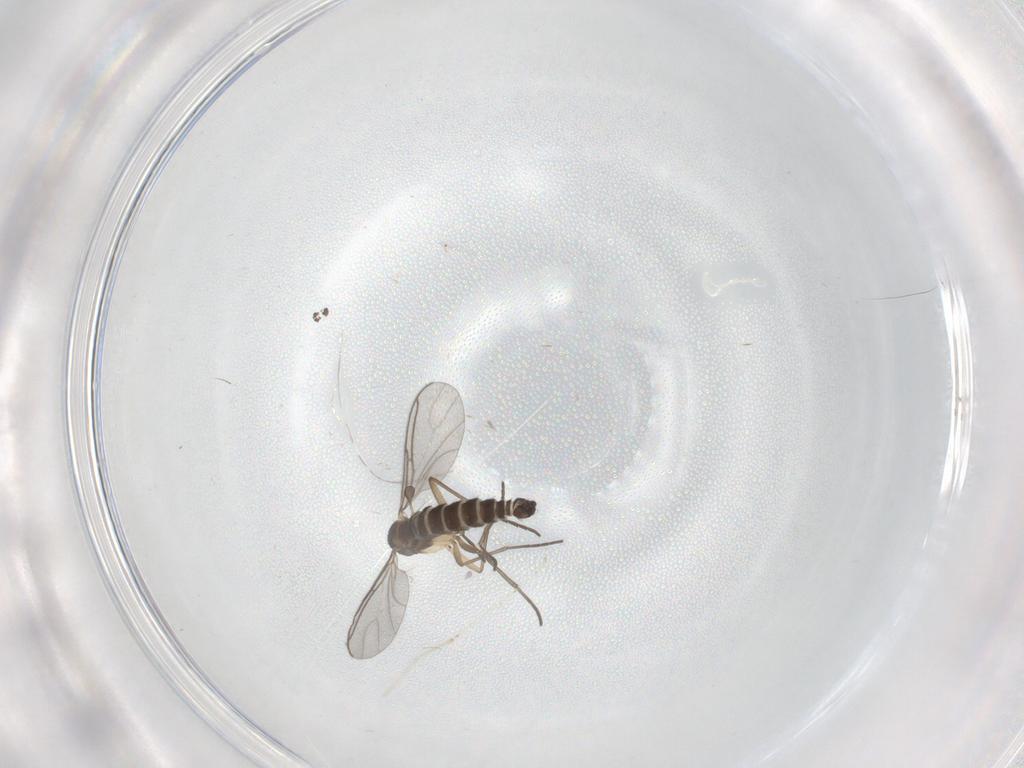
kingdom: Animalia
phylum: Arthropoda
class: Insecta
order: Diptera
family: Sciaridae
